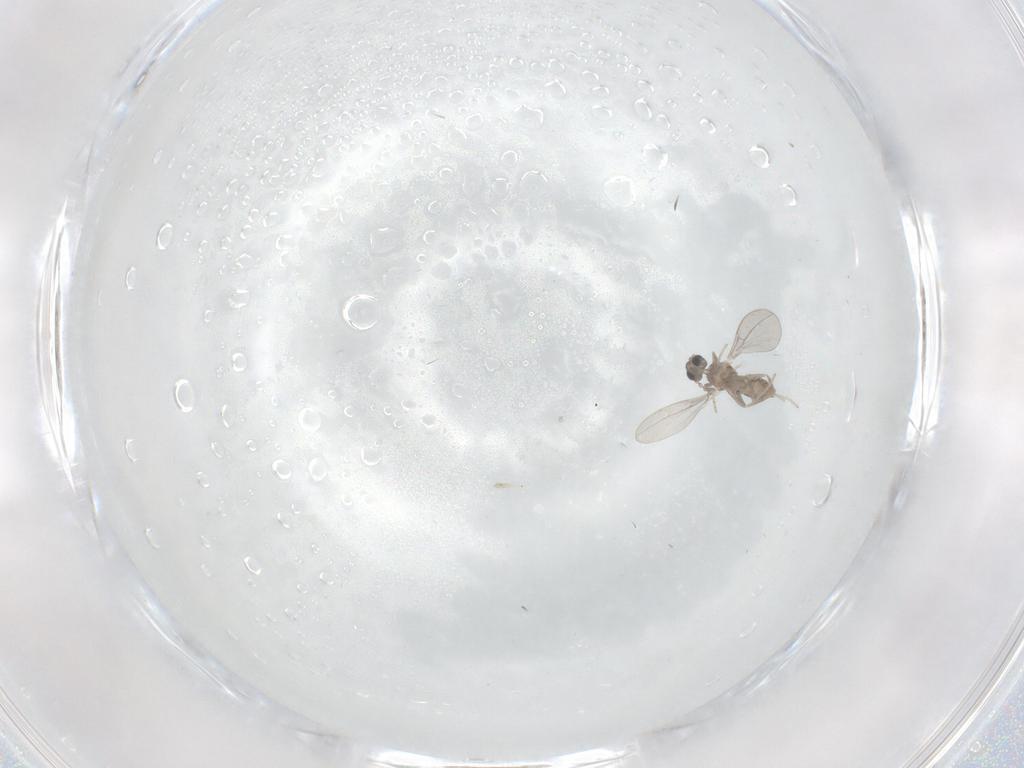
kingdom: Animalia
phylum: Arthropoda
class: Insecta
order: Diptera
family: Cecidomyiidae
